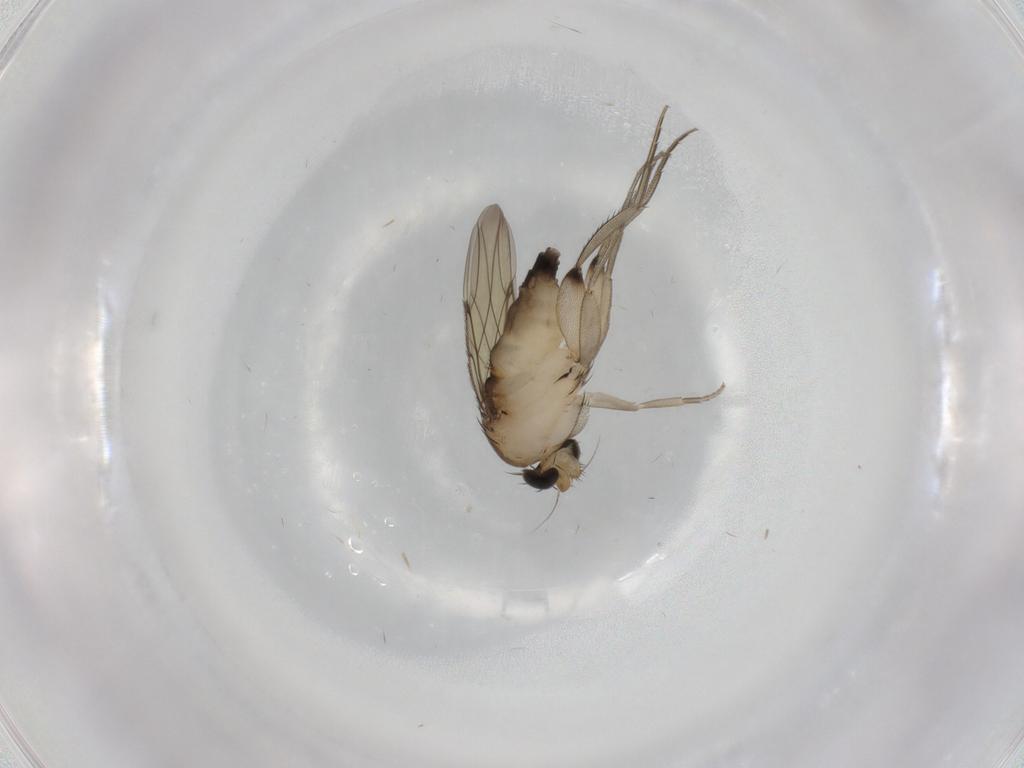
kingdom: Animalia
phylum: Arthropoda
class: Insecta
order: Diptera
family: Phoridae
